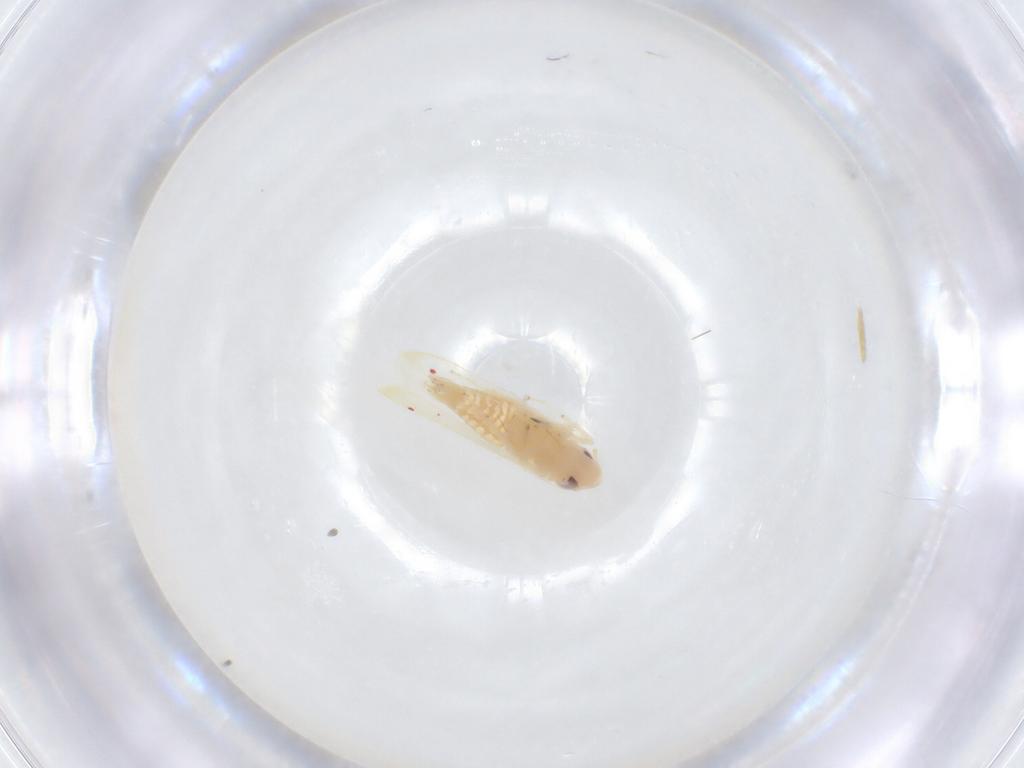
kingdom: Animalia
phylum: Arthropoda
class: Insecta
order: Hemiptera
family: Cicadellidae
